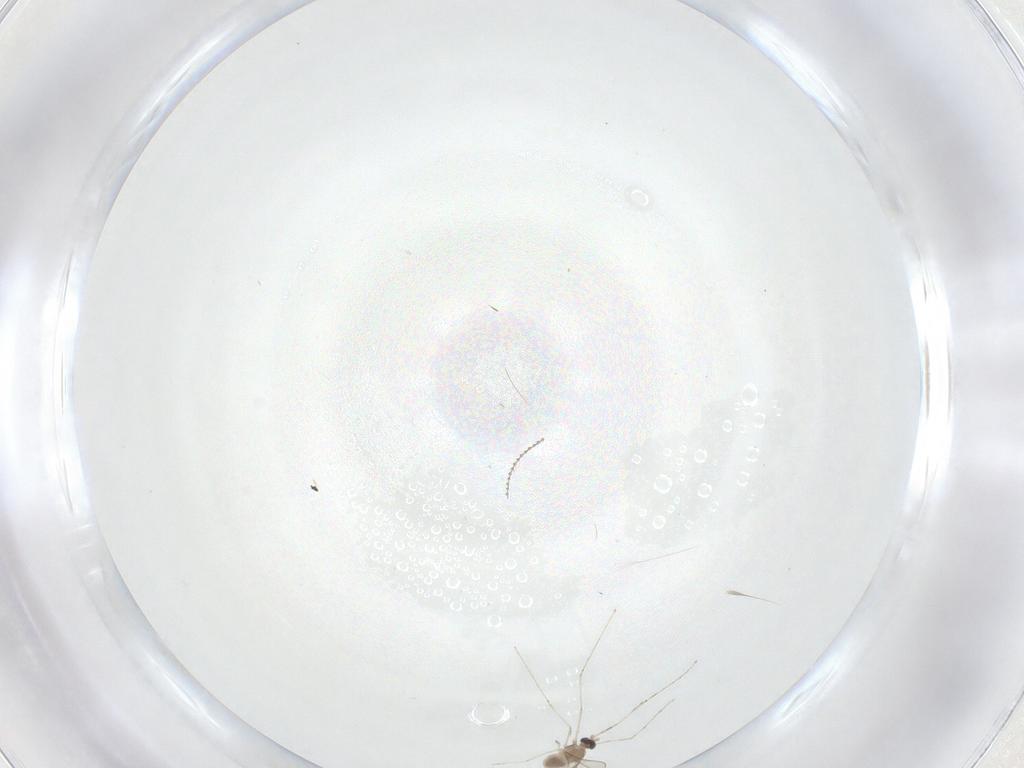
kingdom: Animalia
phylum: Arthropoda
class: Insecta
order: Diptera
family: Cecidomyiidae
